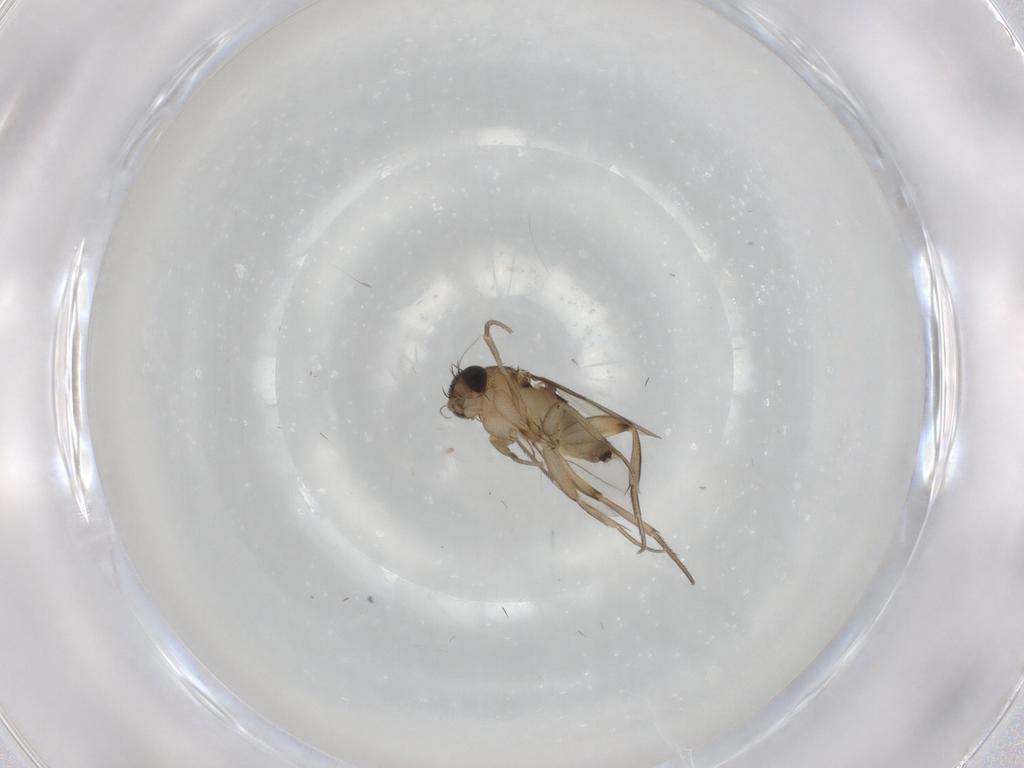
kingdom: Animalia
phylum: Arthropoda
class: Insecta
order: Diptera
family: Phoridae
